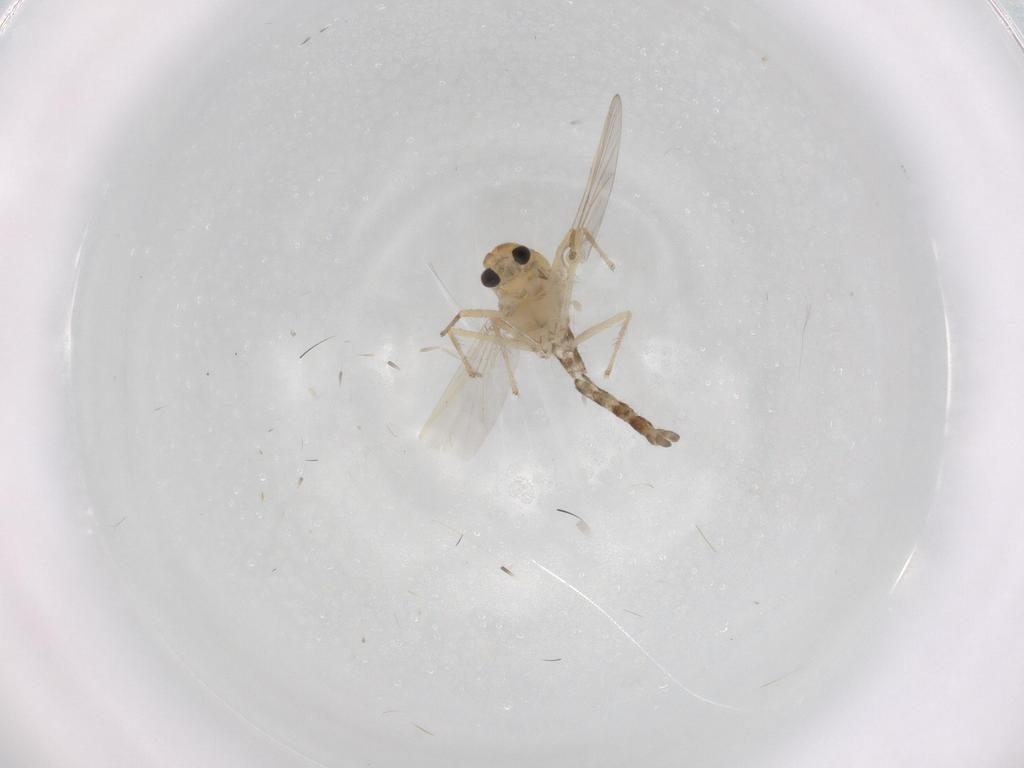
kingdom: Animalia
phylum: Arthropoda
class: Insecta
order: Diptera
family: Chironomidae
